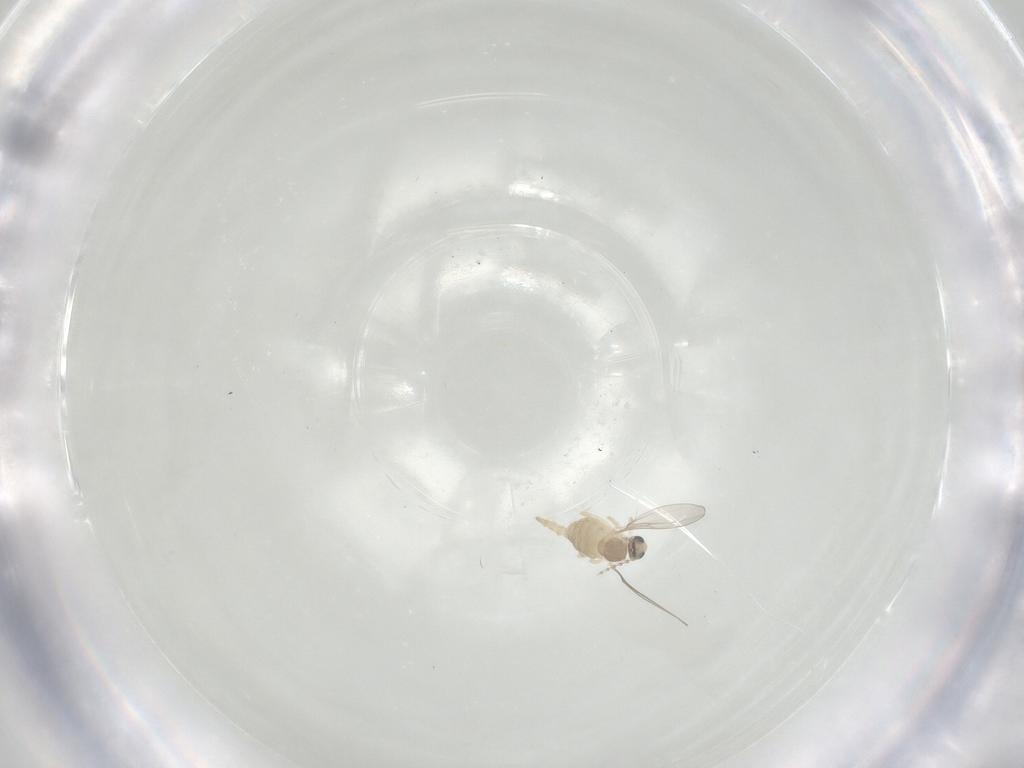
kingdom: Animalia
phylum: Arthropoda
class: Insecta
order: Diptera
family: Cecidomyiidae
